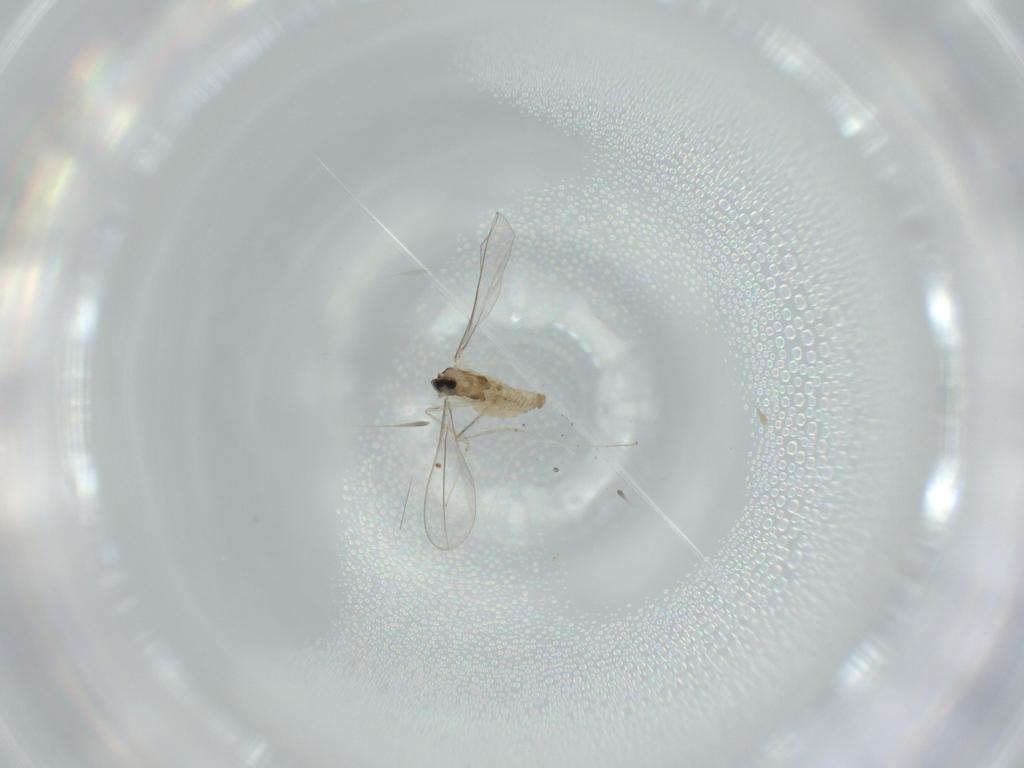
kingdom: Animalia
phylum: Arthropoda
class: Insecta
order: Diptera
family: Cecidomyiidae
